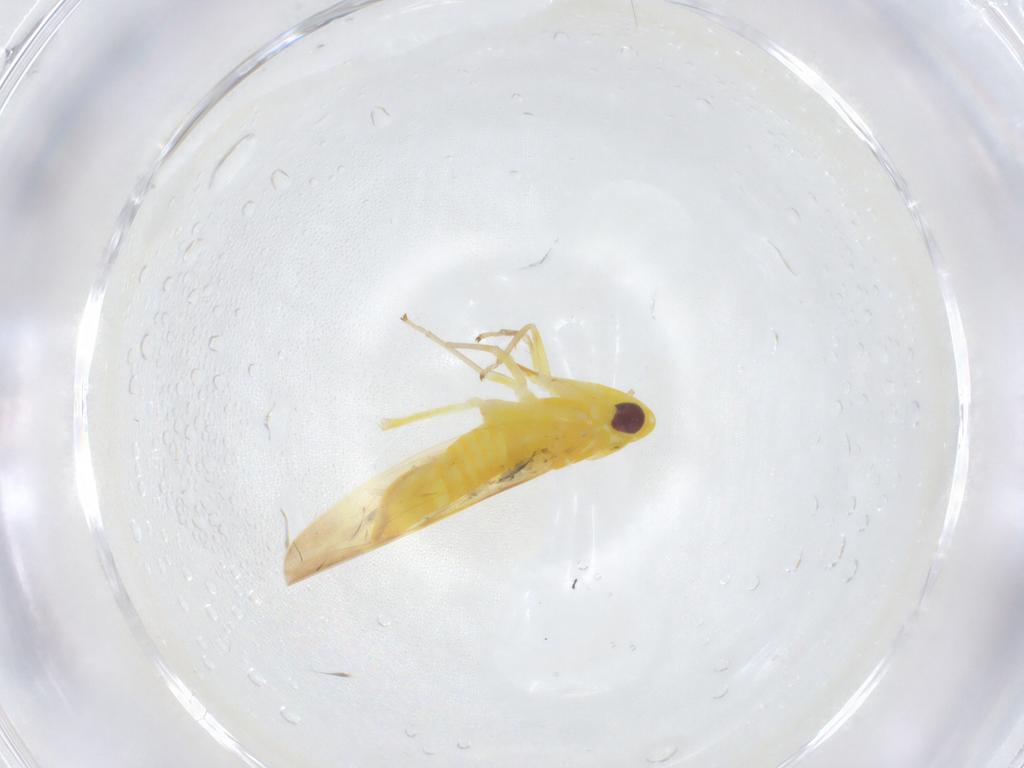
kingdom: Animalia
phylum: Arthropoda
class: Insecta
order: Hemiptera
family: Cicadellidae
